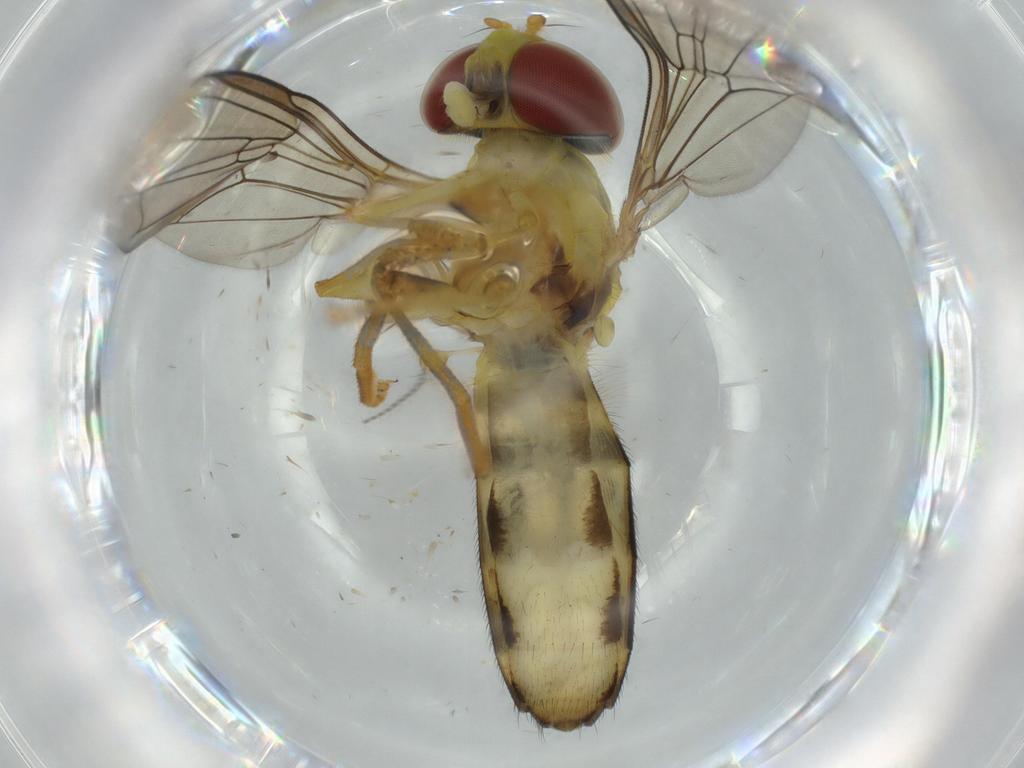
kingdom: Animalia
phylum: Arthropoda
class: Insecta
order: Diptera
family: Syrphidae
